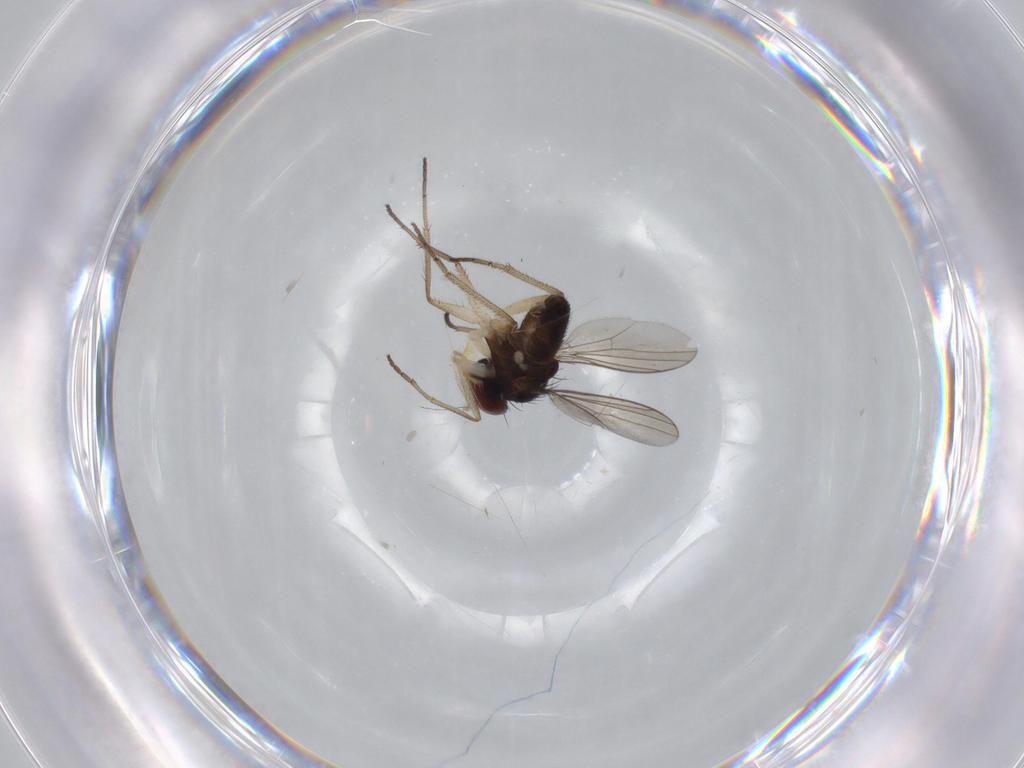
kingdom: Animalia
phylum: Arthropoda
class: Insecta
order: Diptera
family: Dolichopodidae
